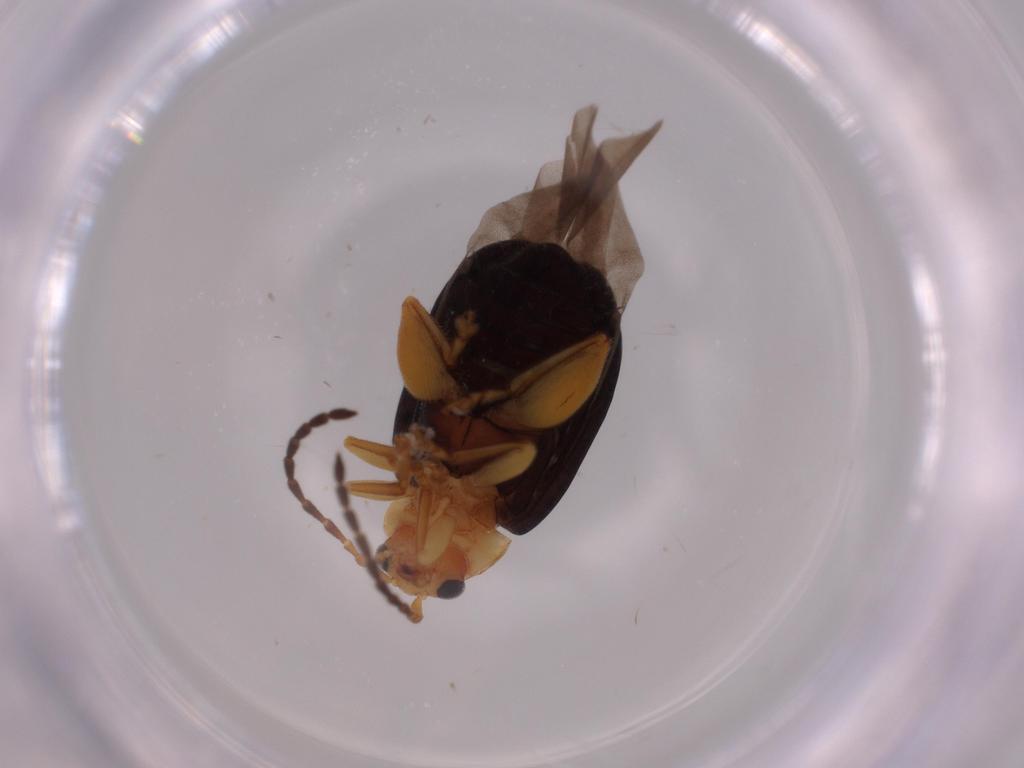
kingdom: Animalia
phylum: Arthropoda
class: Insecta
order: Coleoptera
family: Chrysomelidae
